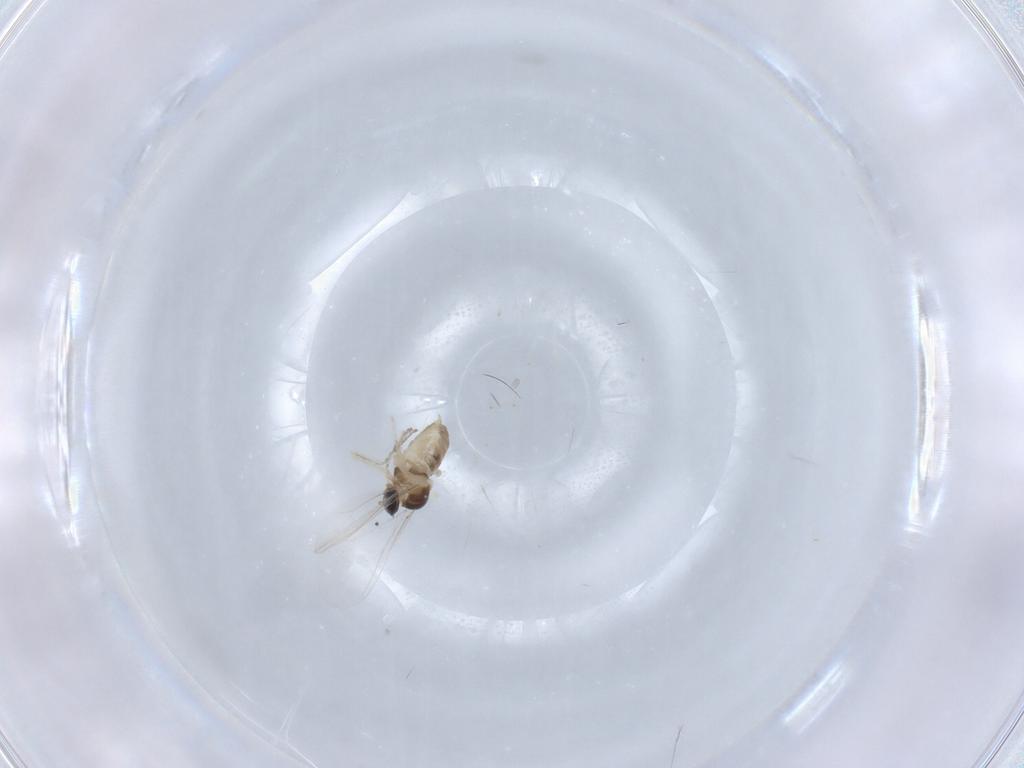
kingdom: Animalia
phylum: Arthropoda
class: Insecta
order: Diptera
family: Cecidomyiidae
